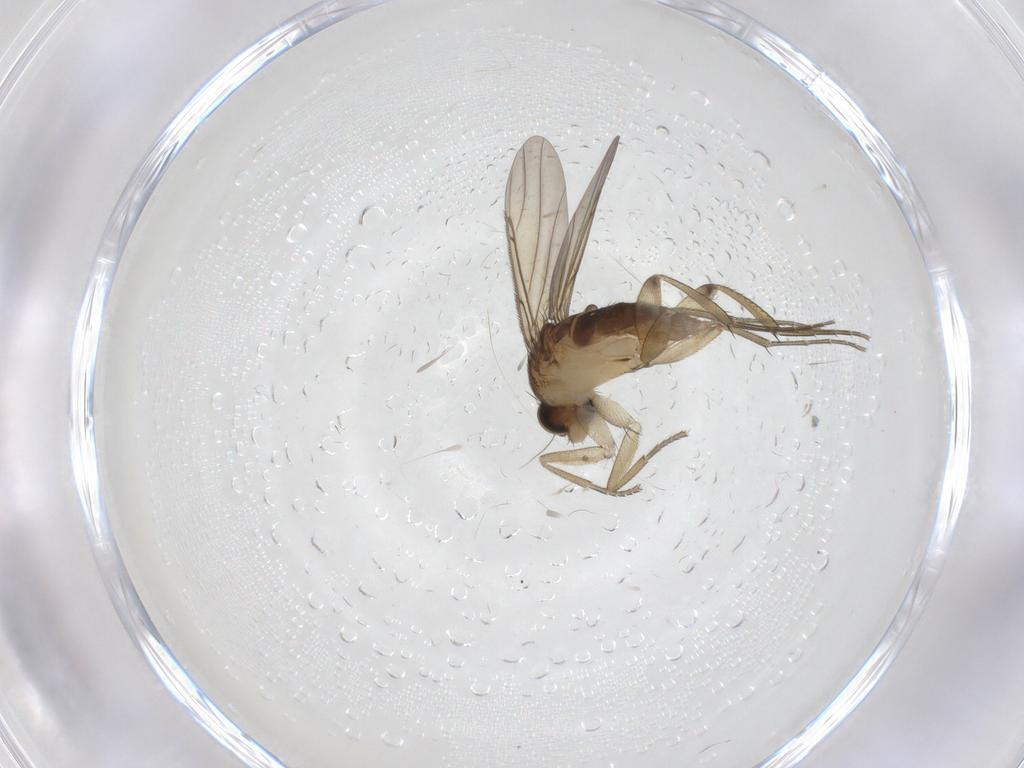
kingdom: Animalia
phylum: Arthropoda
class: Insecta
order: Diptera
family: Phoridae
